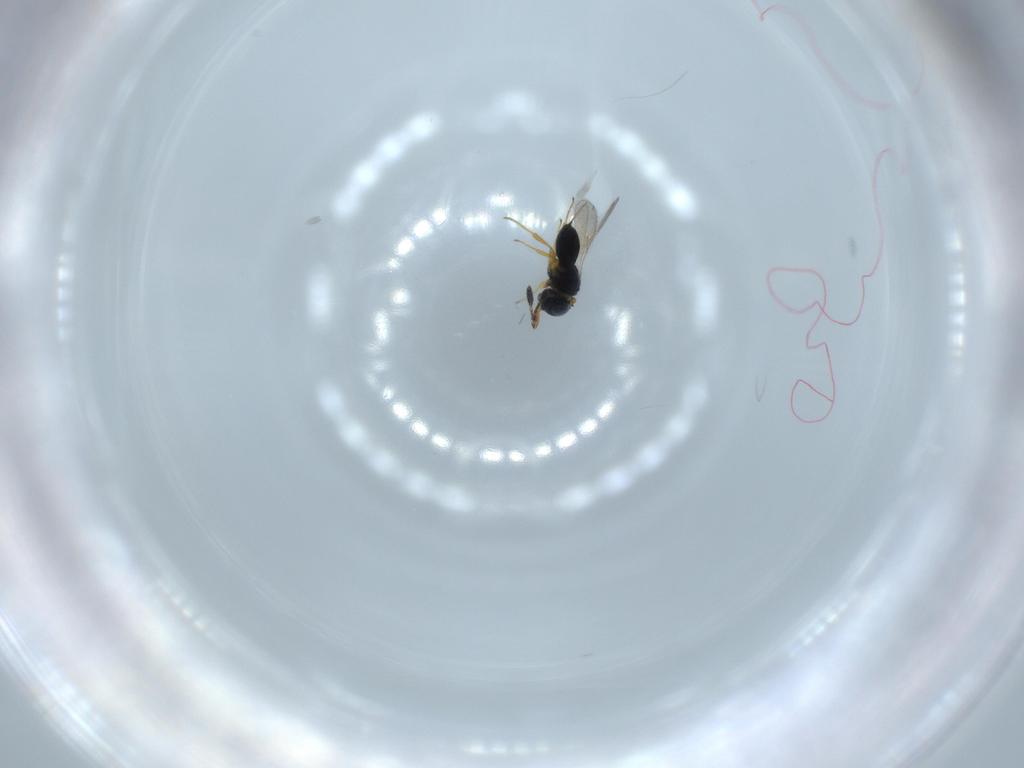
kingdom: Animalia
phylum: Arthropoda
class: Insecta
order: Hymenoptera
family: Scelionidae
